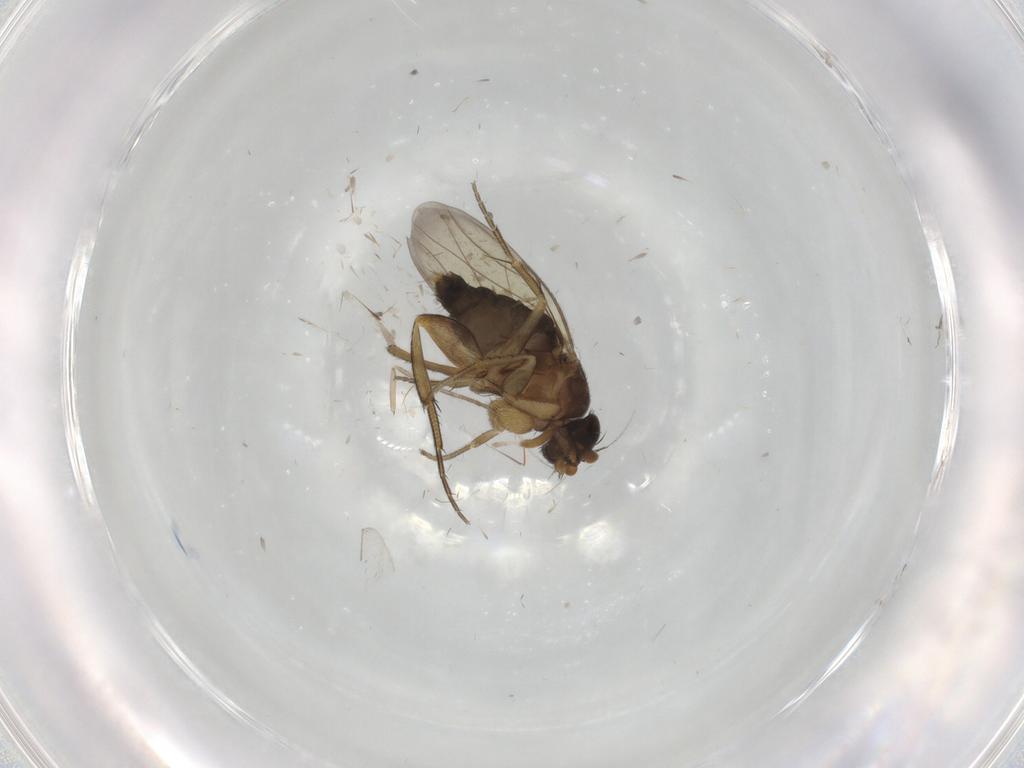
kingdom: Animalia
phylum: Arthropoda
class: Insecta
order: Diptera
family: Phoridae
